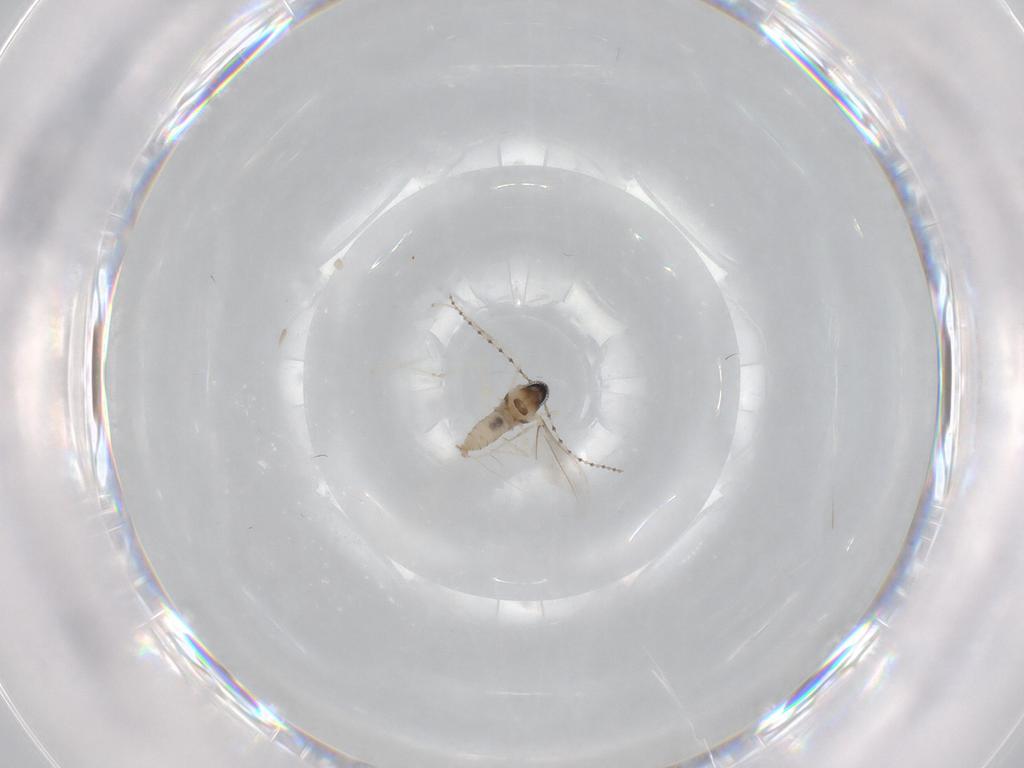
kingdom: Animalia
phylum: Arthropoda
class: Insecta
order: Diptera
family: Cecidomyiidae
